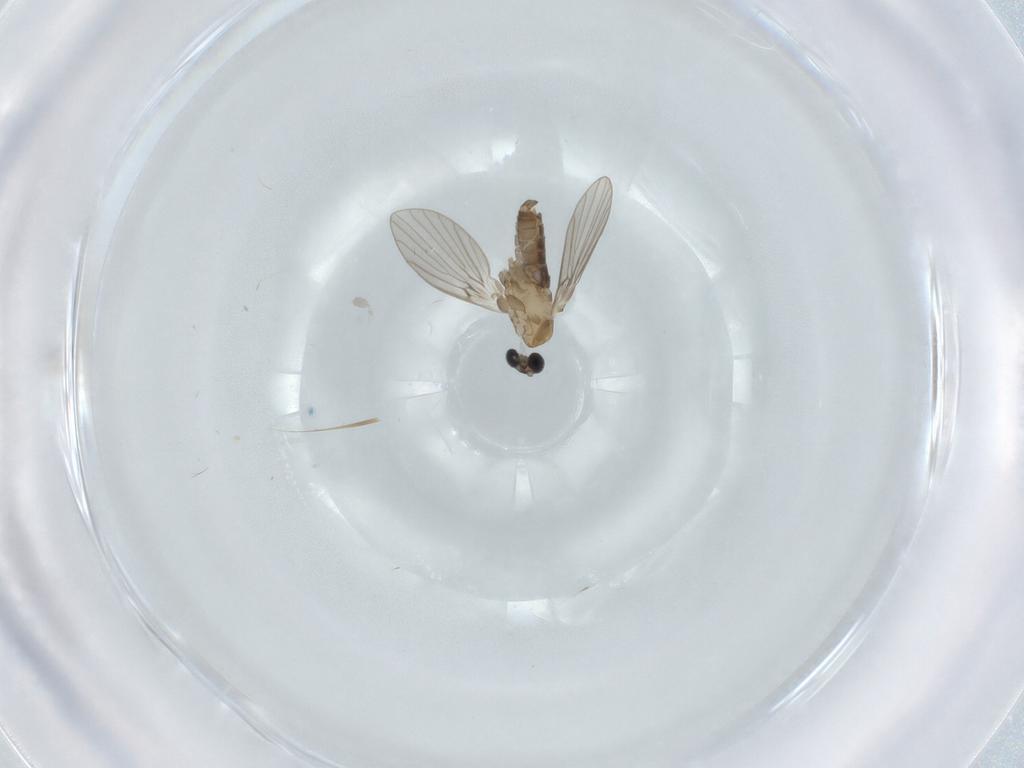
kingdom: Animalia
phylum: Arthropoda
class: Insecta
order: Diptera
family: Psychodidae
